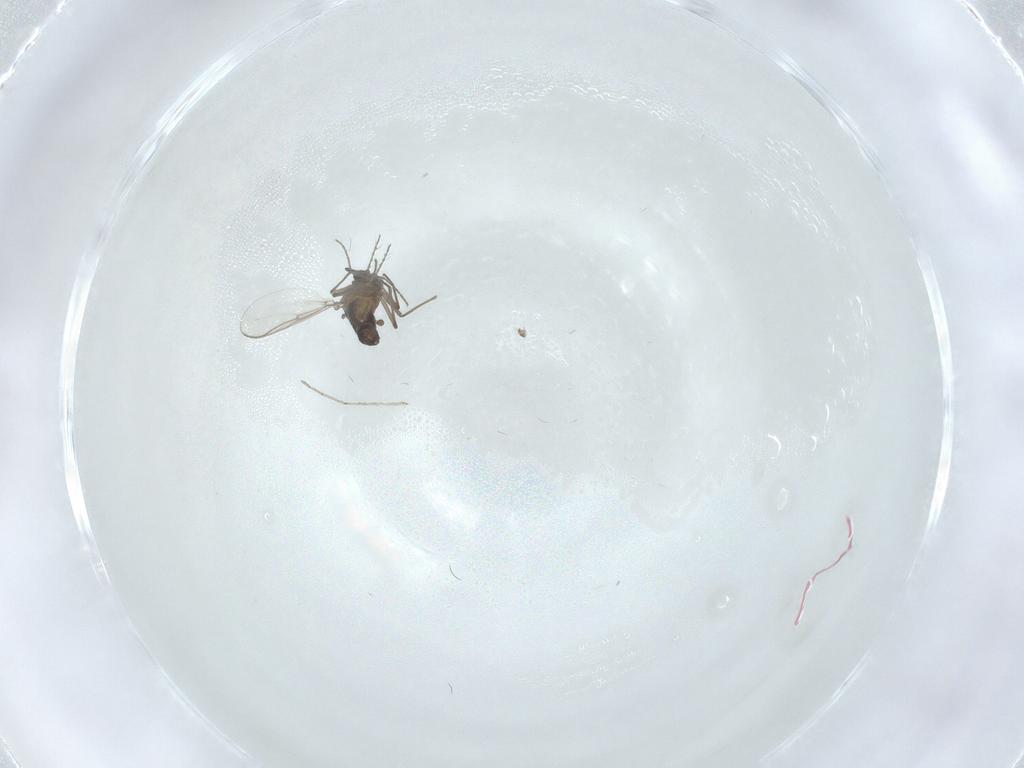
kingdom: Animalia
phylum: Arthropoda
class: Insecta
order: Diptera
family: Chironomidae
